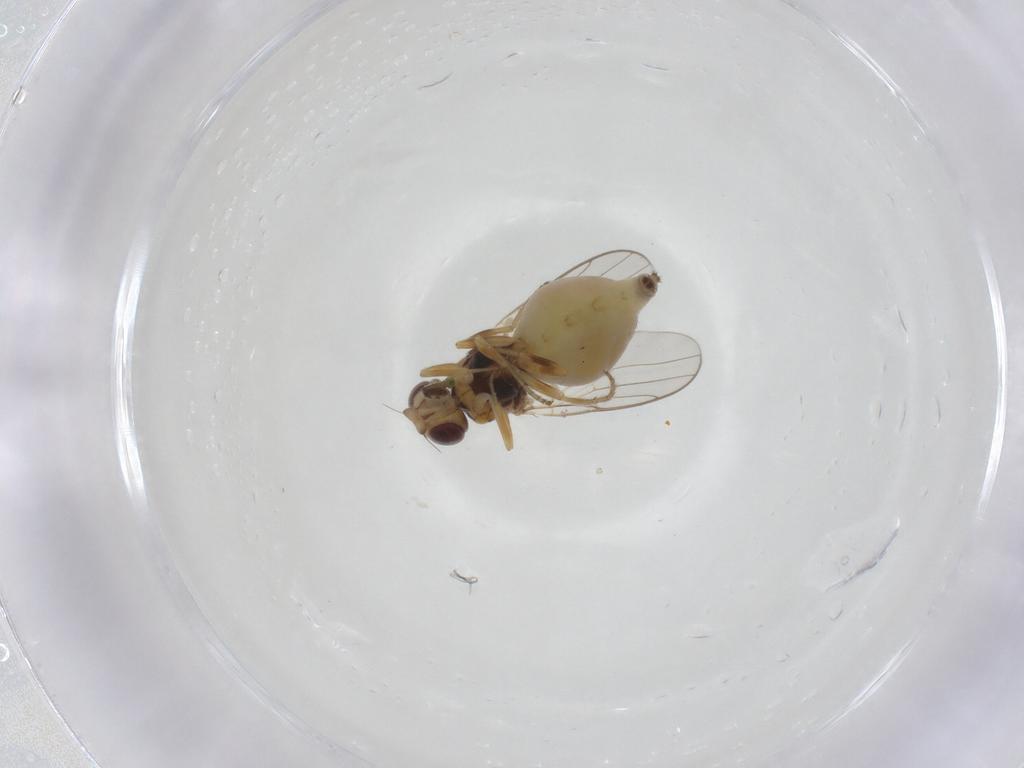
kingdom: Animalia
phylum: Arthropoda
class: Insecta
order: Diptera
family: Chloropidae
